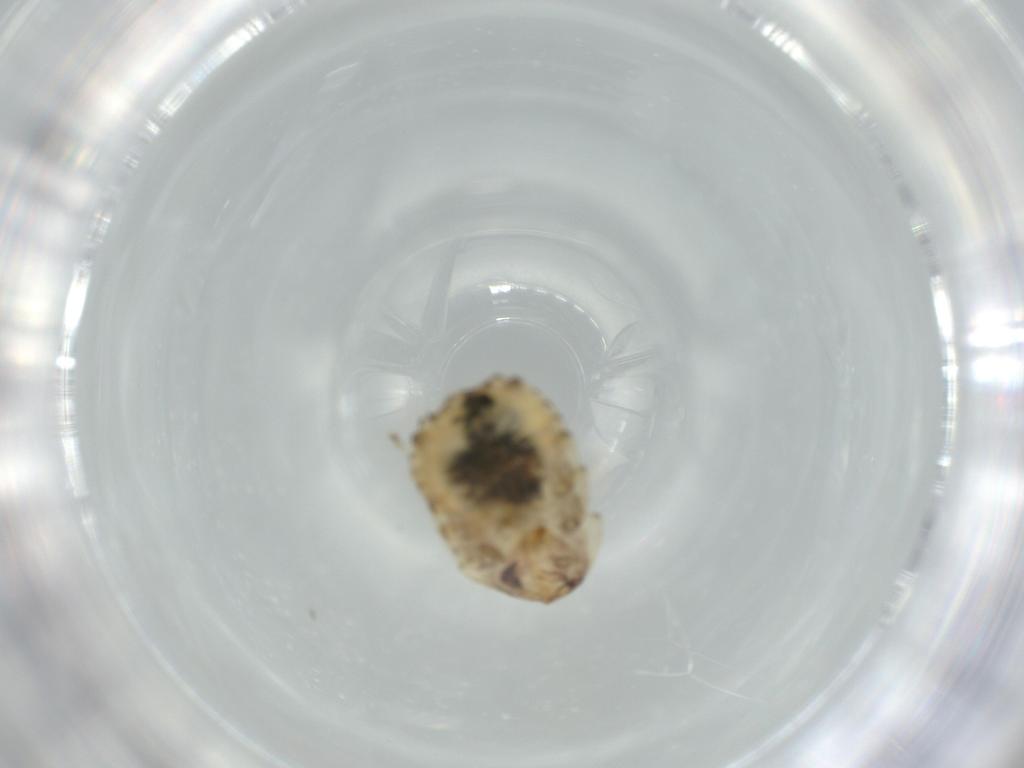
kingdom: Animalia
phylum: Arthropoda
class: Insecta
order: Blattodea
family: Ectobiidae
